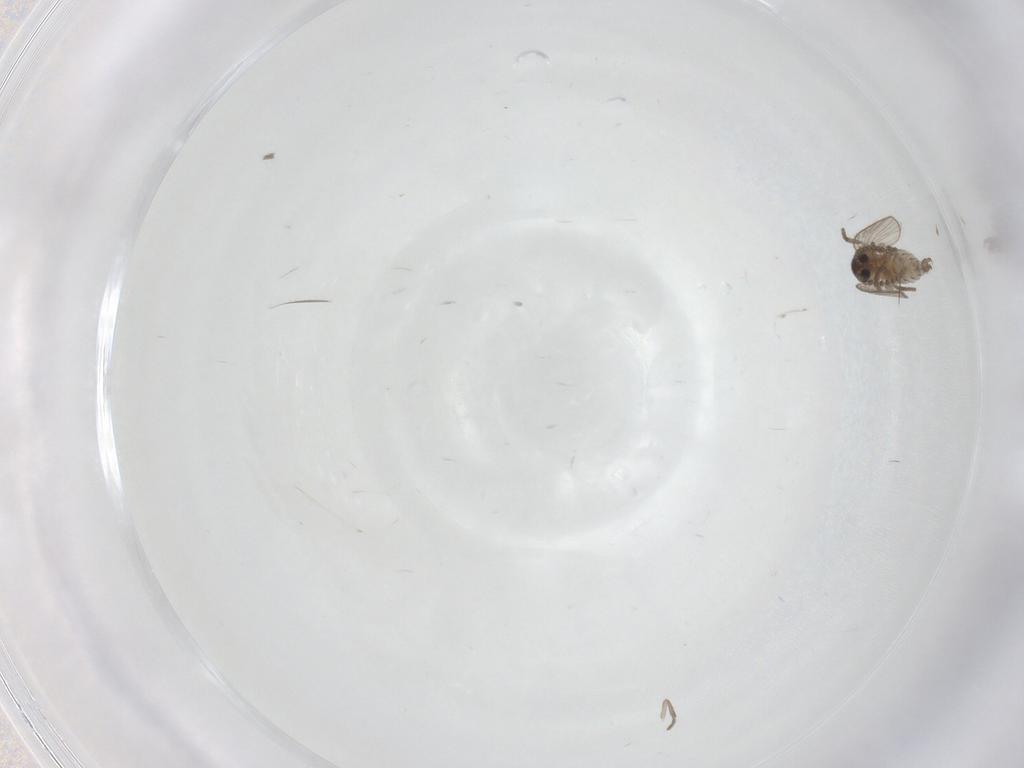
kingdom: Animalia
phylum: Arthropoda
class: Insecta
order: Diptera
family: Tipulidae
